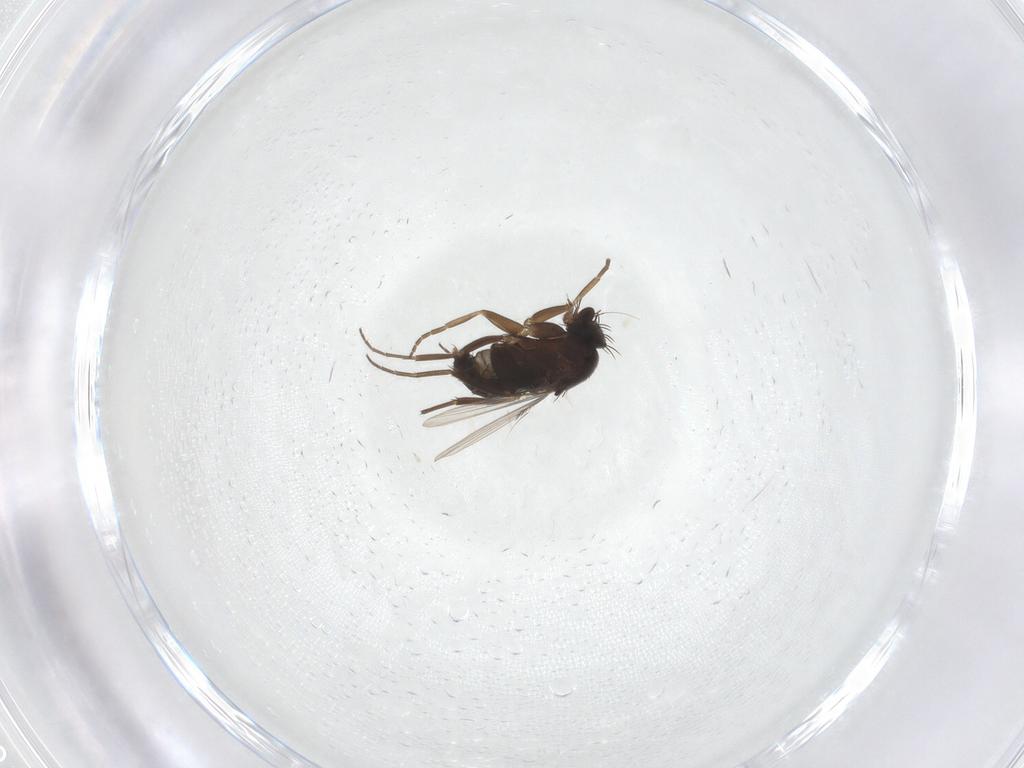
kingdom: Animalia
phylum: Arthropoda
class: Insecta
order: Diptera
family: Phoridae
